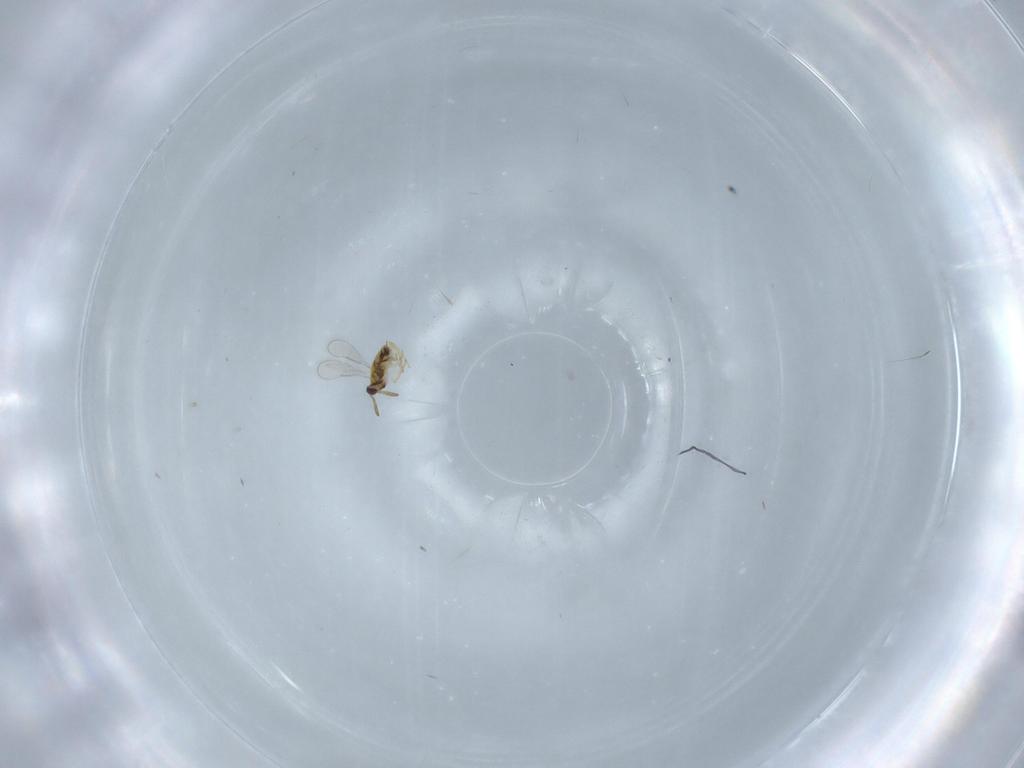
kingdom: Animalia
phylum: Arthropoda
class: Insecta
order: Hymenoptera
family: Aphelinidae
